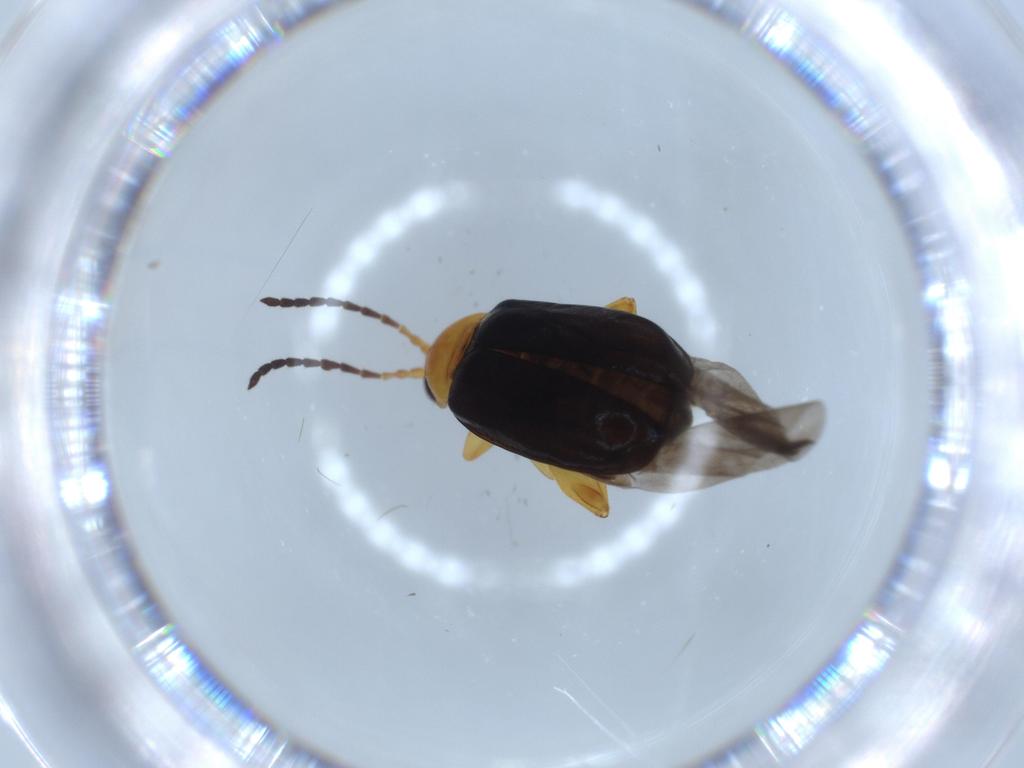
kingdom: Animalia
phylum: Arthropoda
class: Insecta
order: Coleoptera
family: Chrysomelidae
